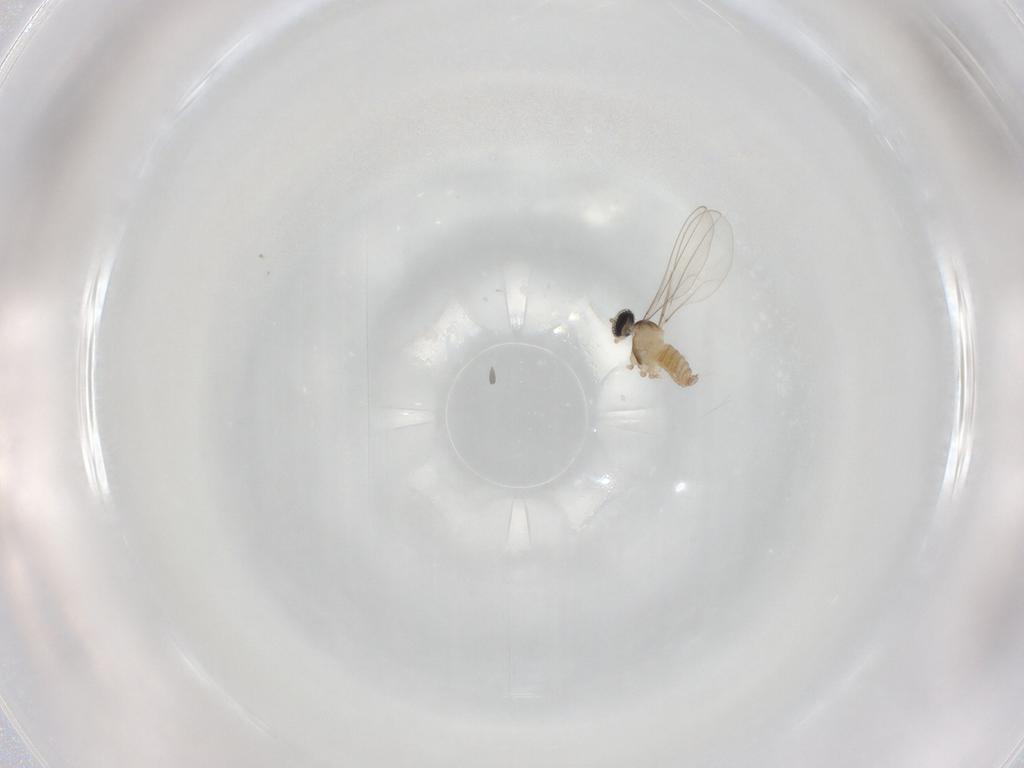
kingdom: Animalia
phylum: Arthropoda
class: Insecta
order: Diptera
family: Cecidomyiidae
